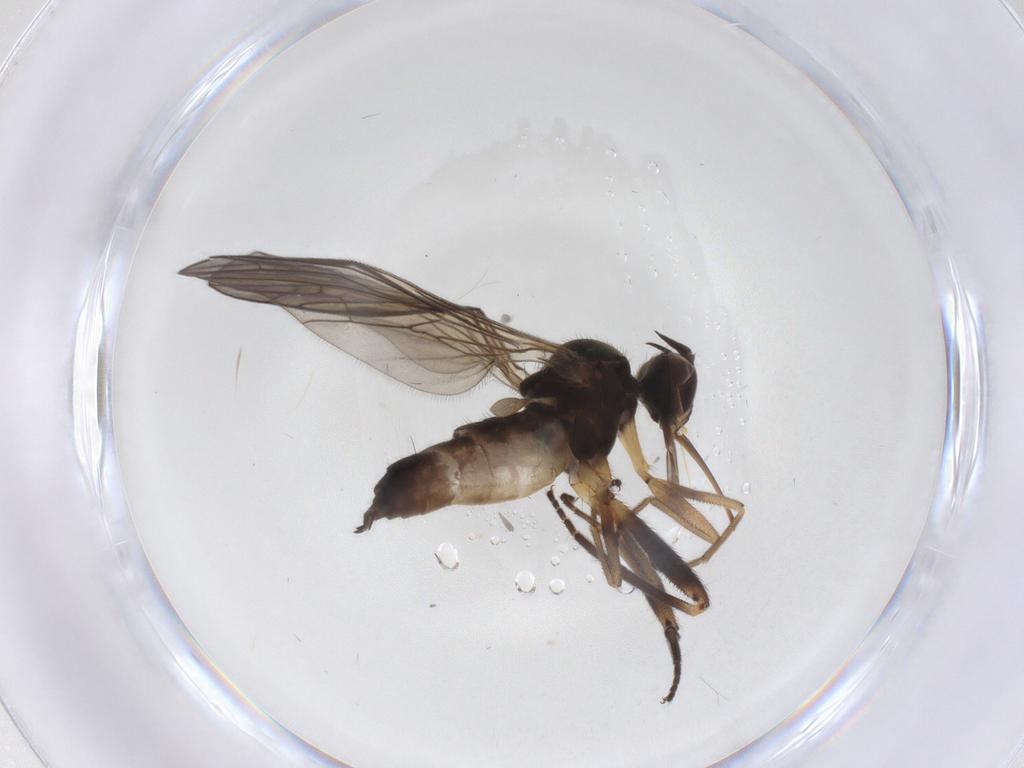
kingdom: Animalia
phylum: Arthropoda
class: Insecta
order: Diptera
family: Empididae
